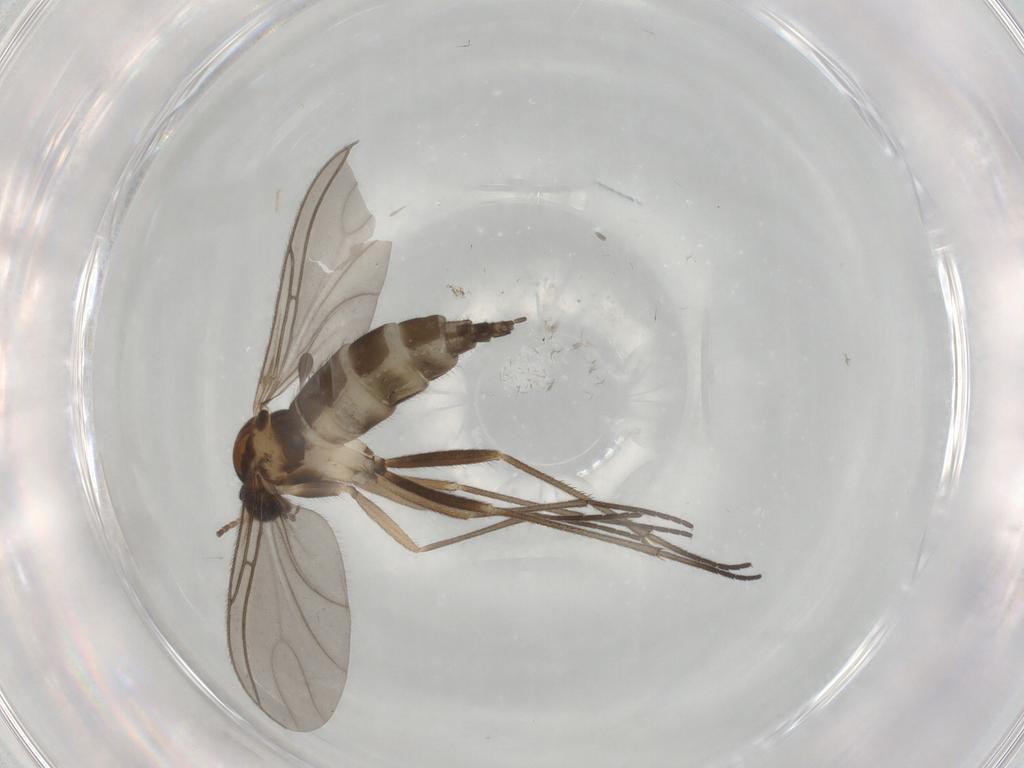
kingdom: Animalia
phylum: Arthropoda
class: Insecta
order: Diptera
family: Sciaridae
